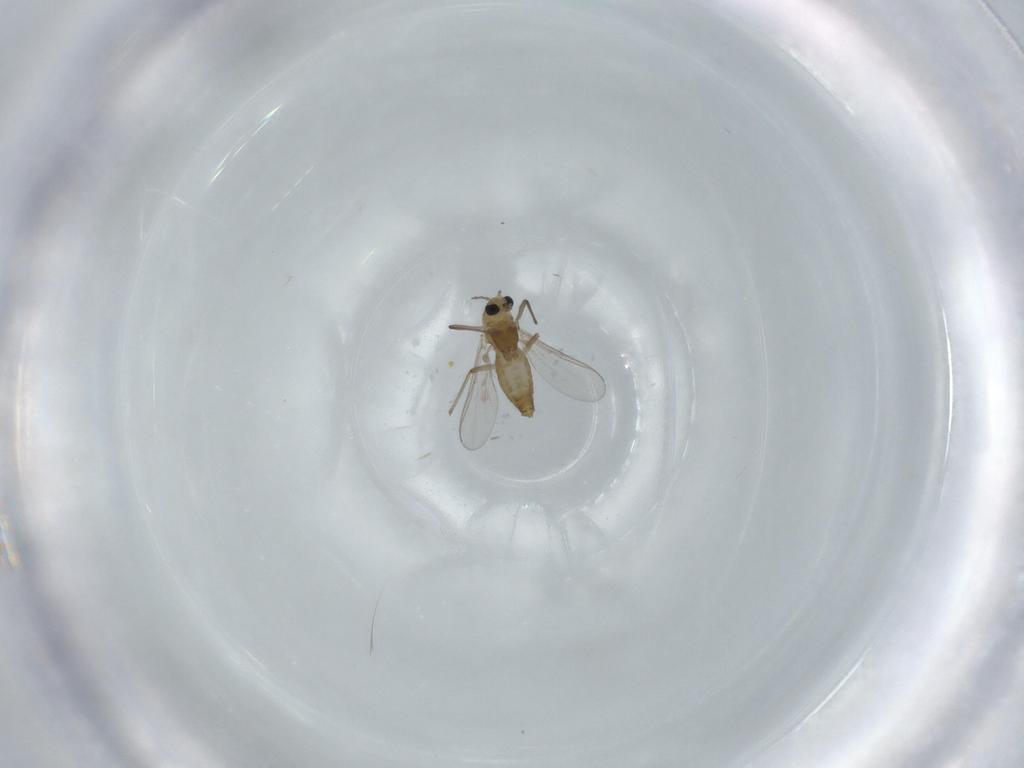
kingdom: Animalia
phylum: Arthropoda
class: Insecta
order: Diptera
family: Chironomidae
